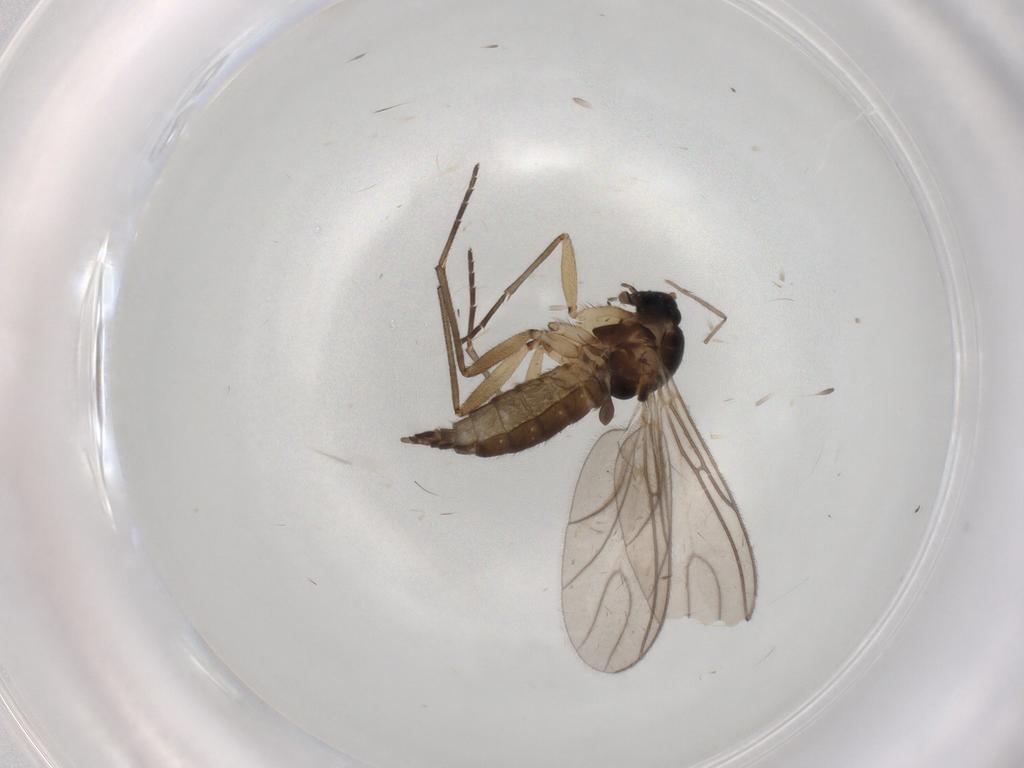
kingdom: Animalia
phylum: Arthropoda
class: Insecta
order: Diptera
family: Sciaridae
